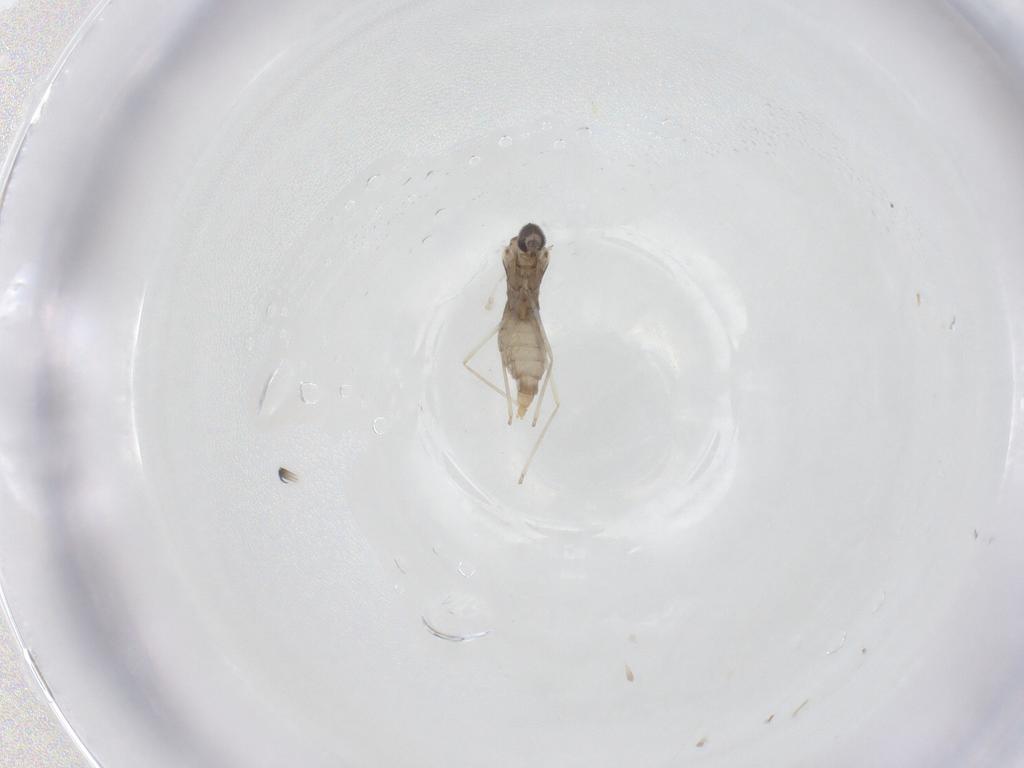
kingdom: Animalia
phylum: Arthropoda
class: Insecta
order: Diptera
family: Cecidomyiidae
